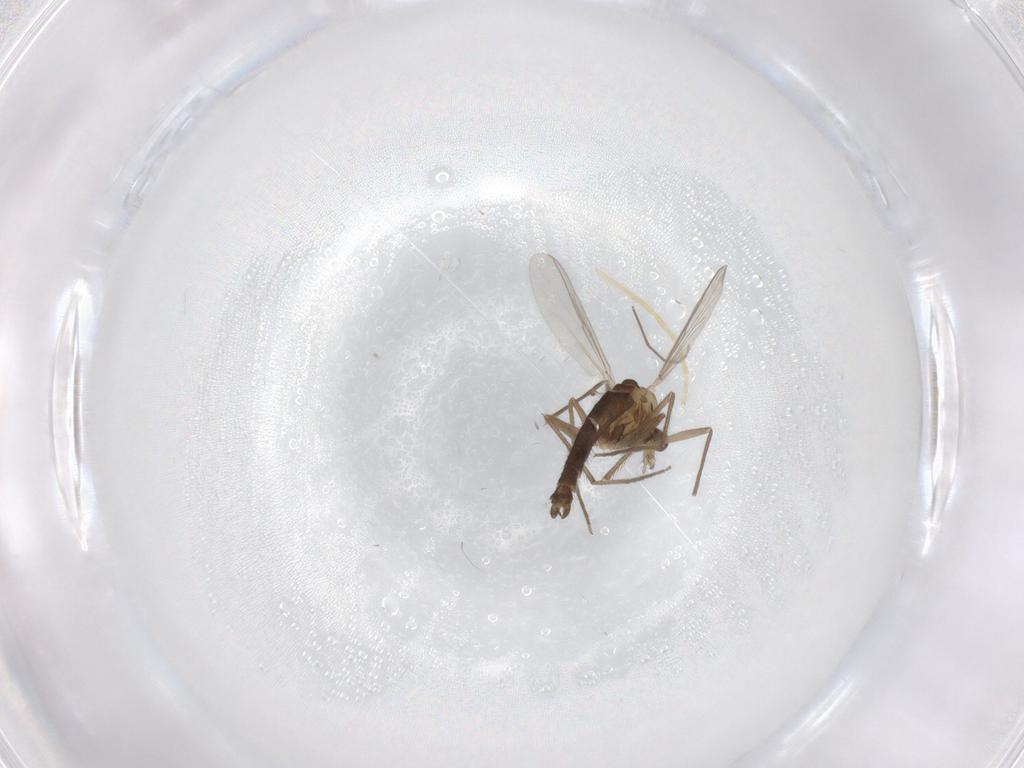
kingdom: Animalia
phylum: Arthropoda
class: Insecta
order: Diptera
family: Chironomidae
